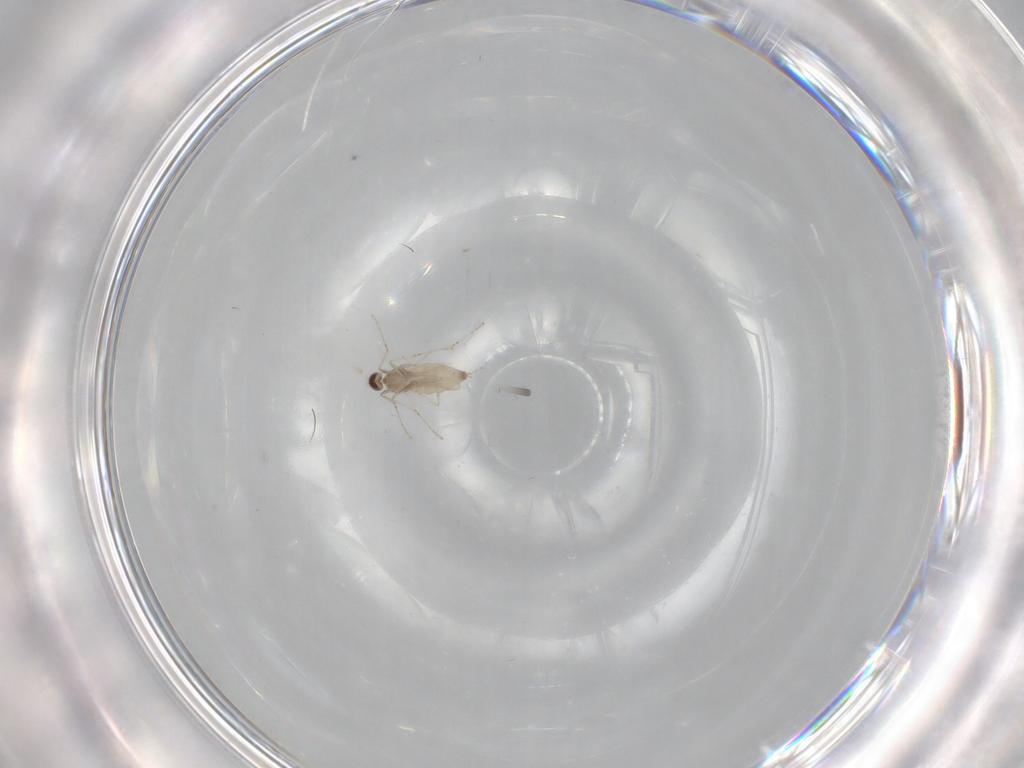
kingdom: Animalia
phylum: Arthropoda
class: Insecta
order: Diptera
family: Cecidomyiidae
